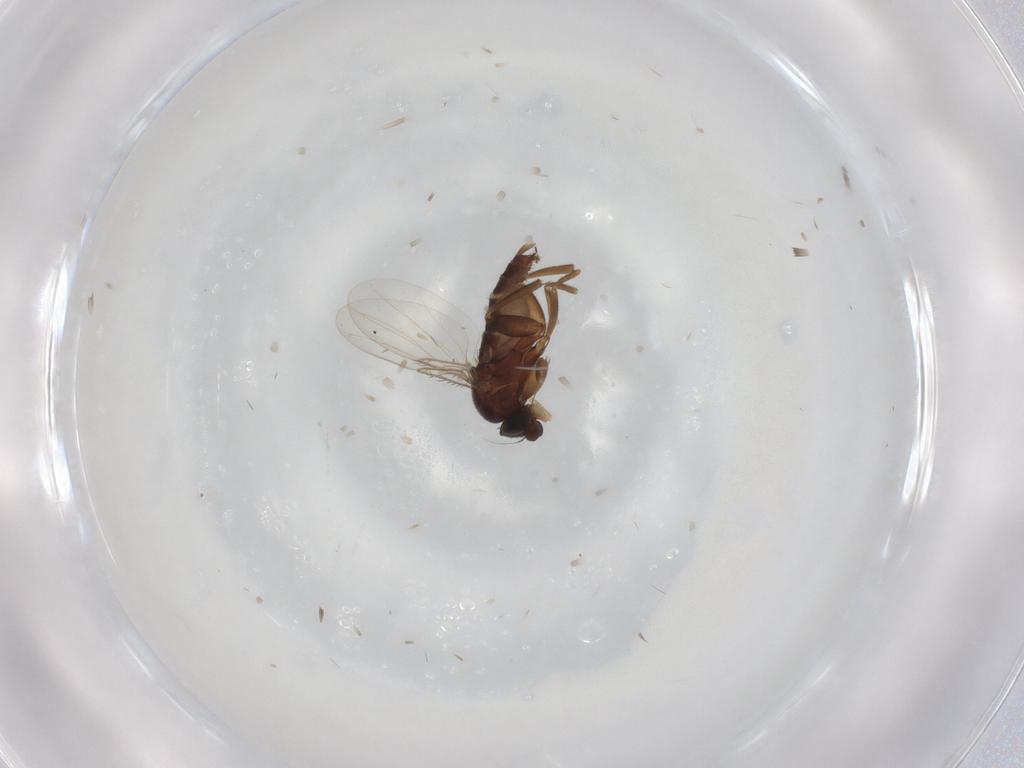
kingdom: Animalia
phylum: Arthropoda
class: Insecta
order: Diptera
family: Phoridae
